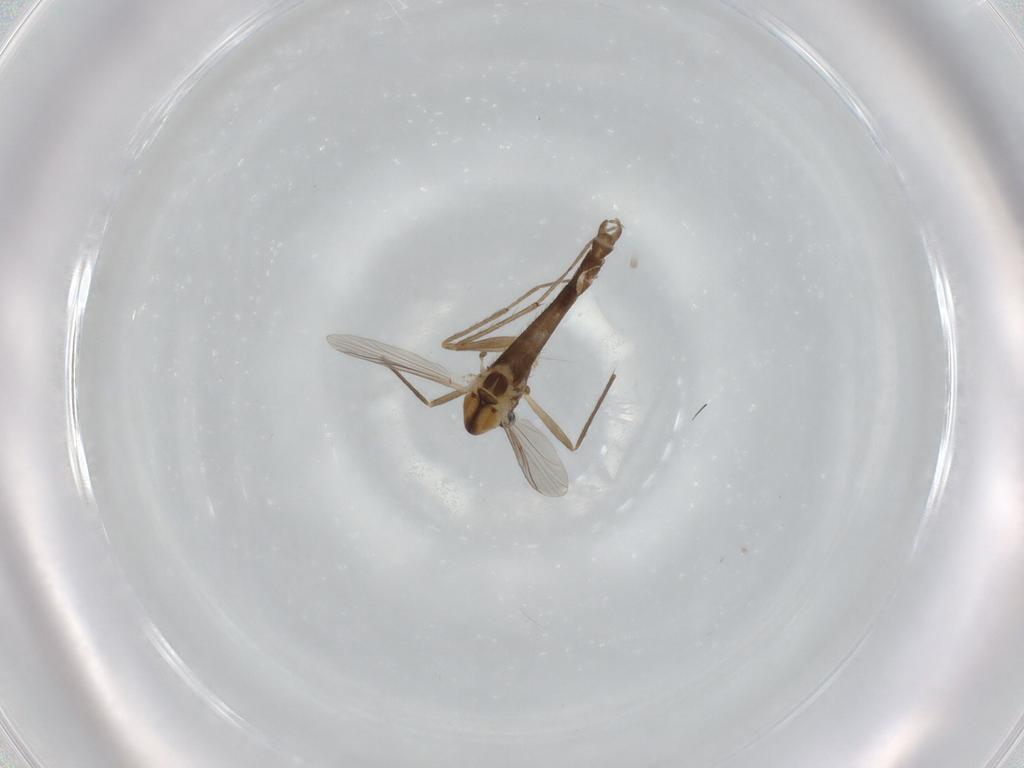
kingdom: Animalia
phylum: Arthropoda
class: Insecta
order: Diptera
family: Chironomidae
